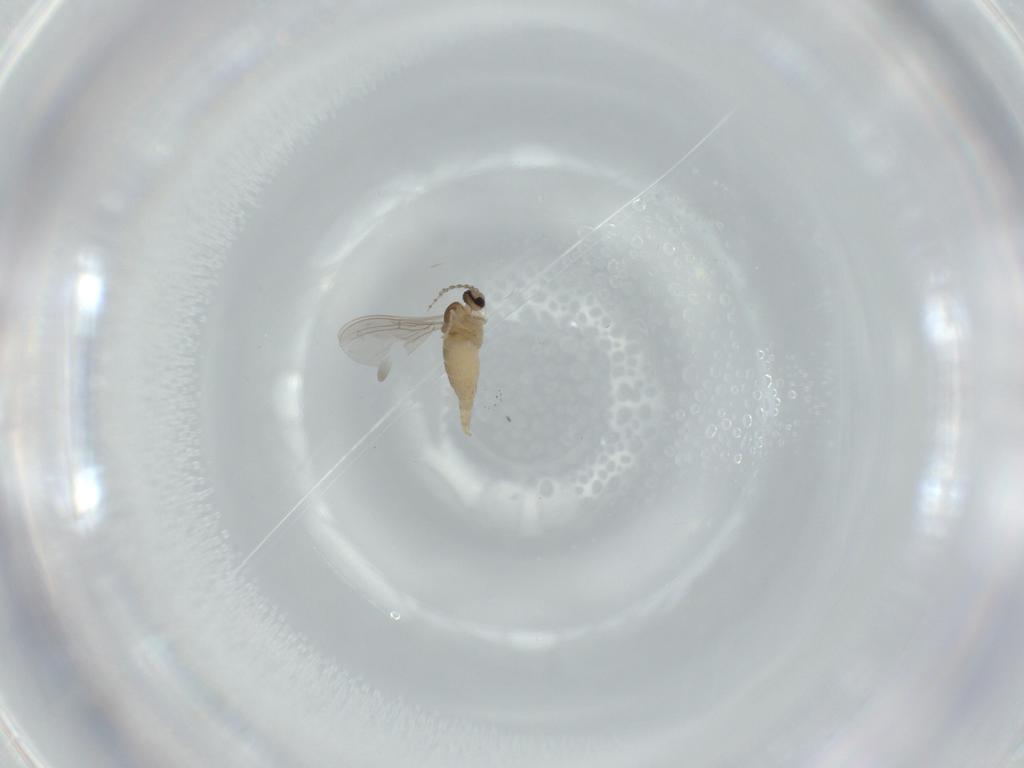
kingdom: Animalia
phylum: Arthropoda
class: Insecta
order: Diptera
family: Cecidomyiidae
